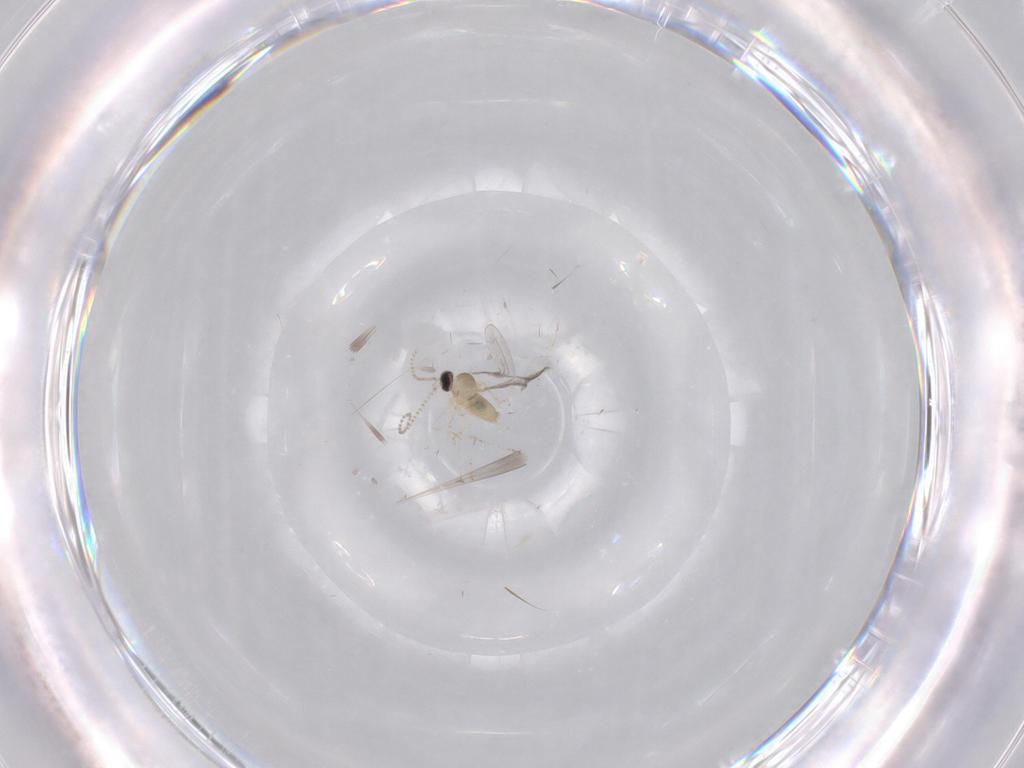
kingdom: Animalia
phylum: Arthropoda
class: Insecta
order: Diptera
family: Cecidomyiidae
